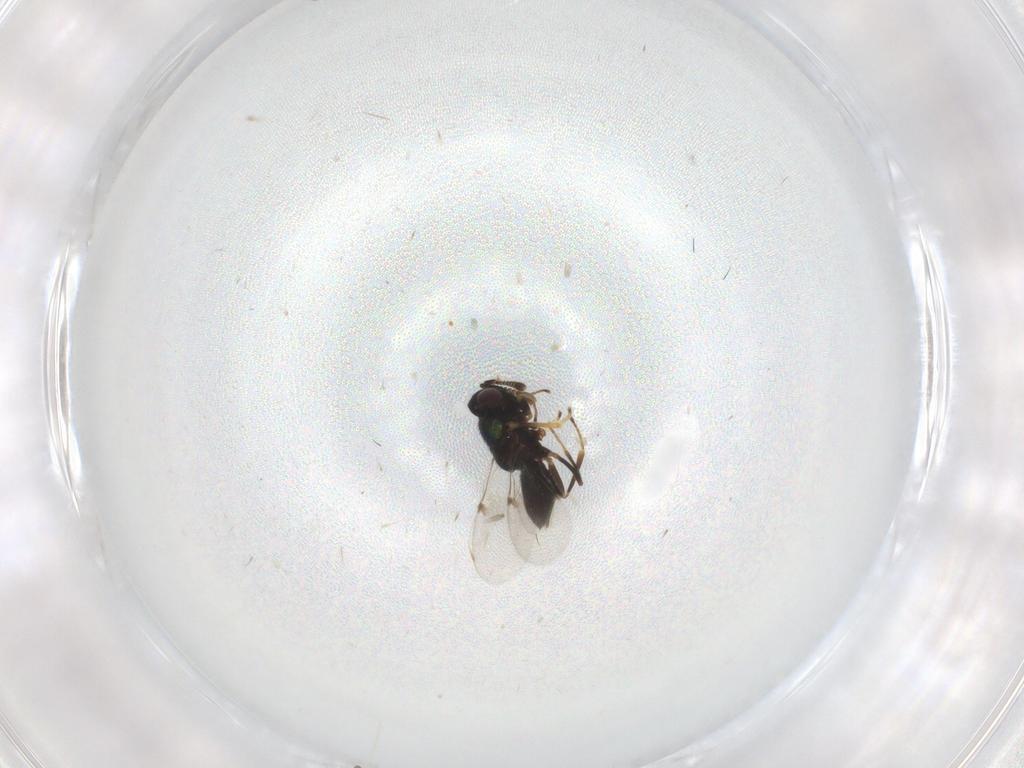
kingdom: Animalia
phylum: Arthropoda
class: Insecta
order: Hymenoptera
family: Encyrtidae
